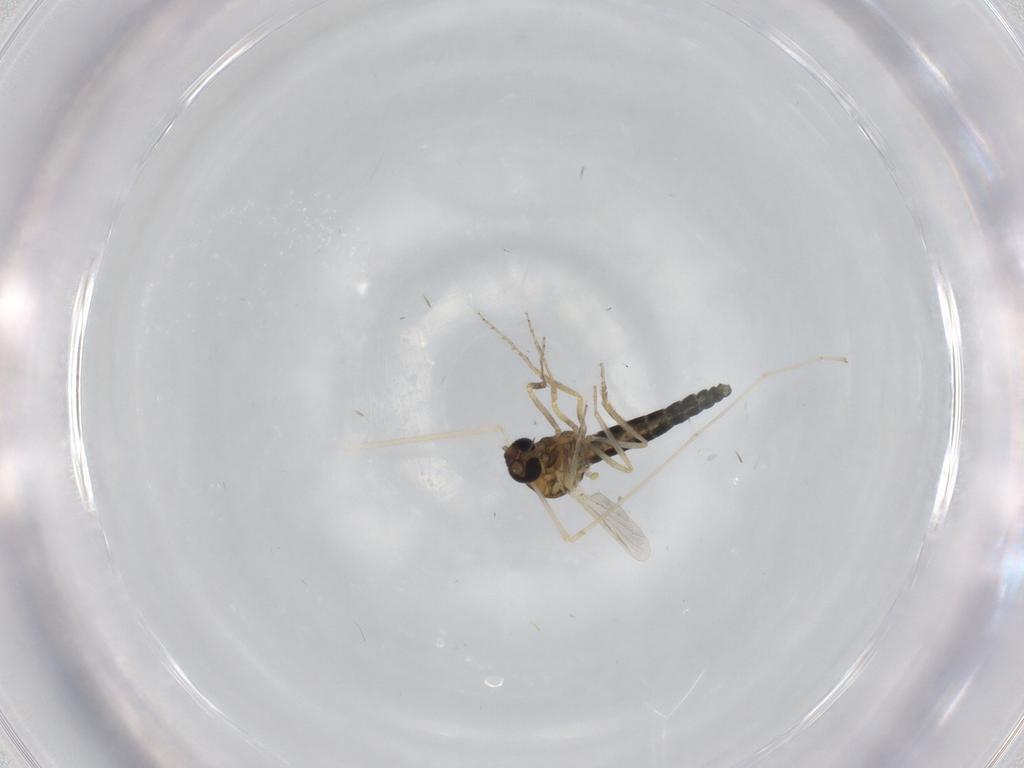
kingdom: Animalia
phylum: Arthropoda
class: Insecta
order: Diptera
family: Ceratopogonidae
